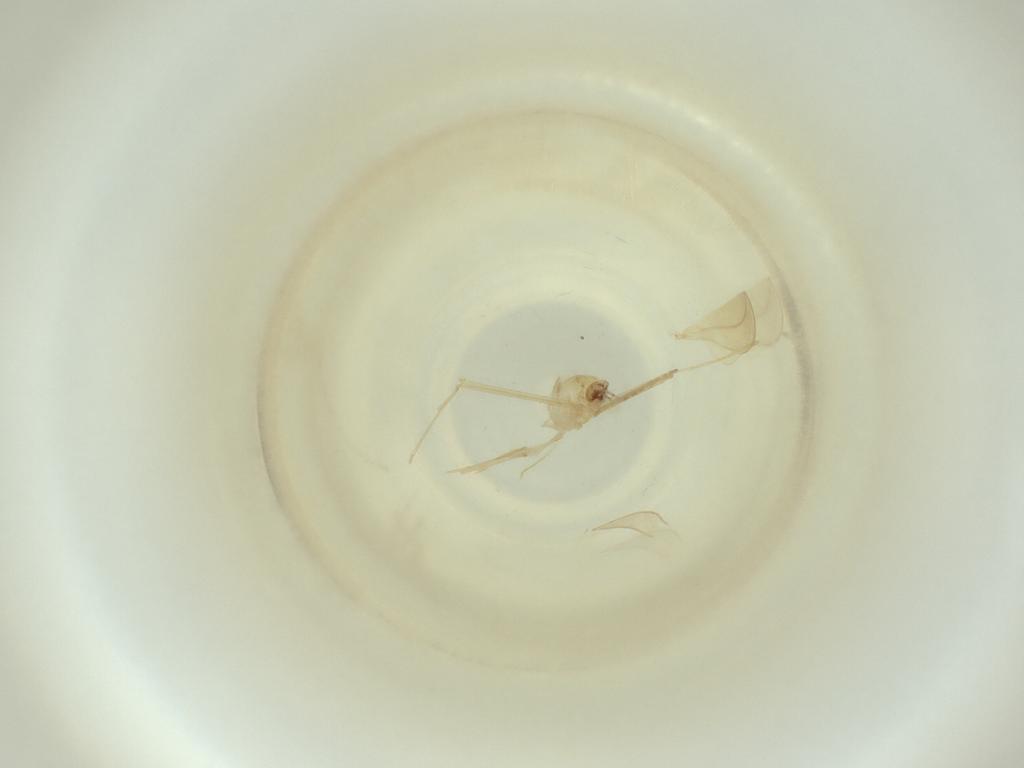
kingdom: Animalia
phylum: Arthropoda
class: Insecta
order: Diptera
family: Cecidomyiidae
